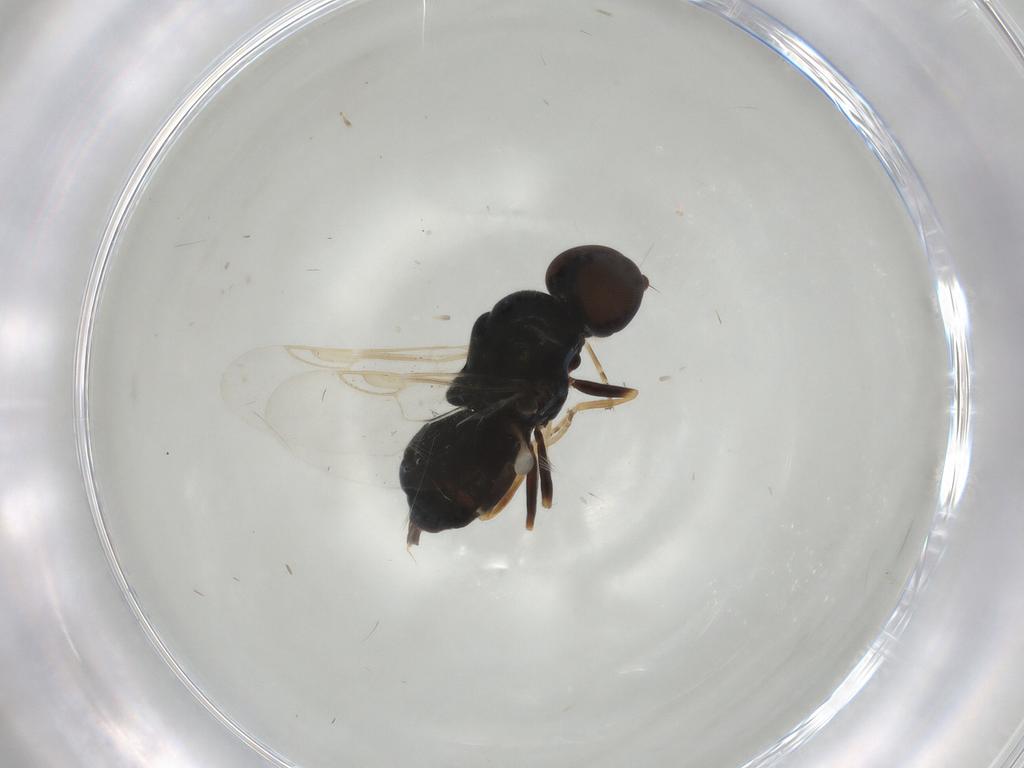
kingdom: Animalia
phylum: Arthropoda
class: Insecta
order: Diptera
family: Stratiomyidae
